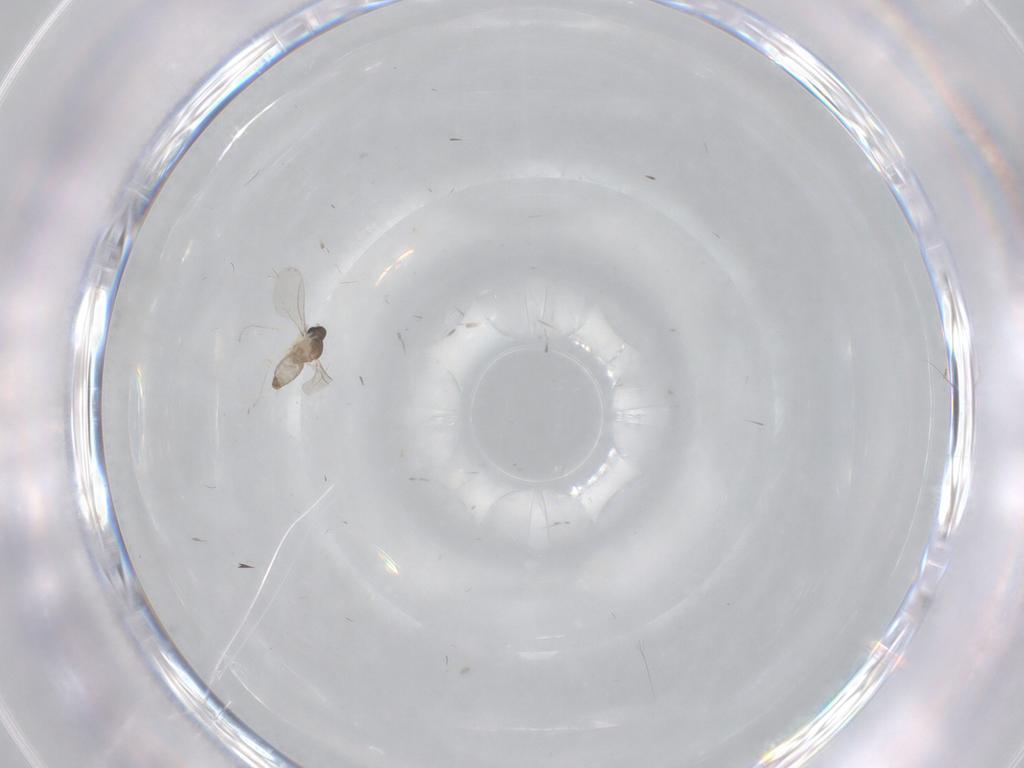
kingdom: Animalia
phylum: Arthropoda
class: Insecta
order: Diptera
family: Cecidomyiidae
